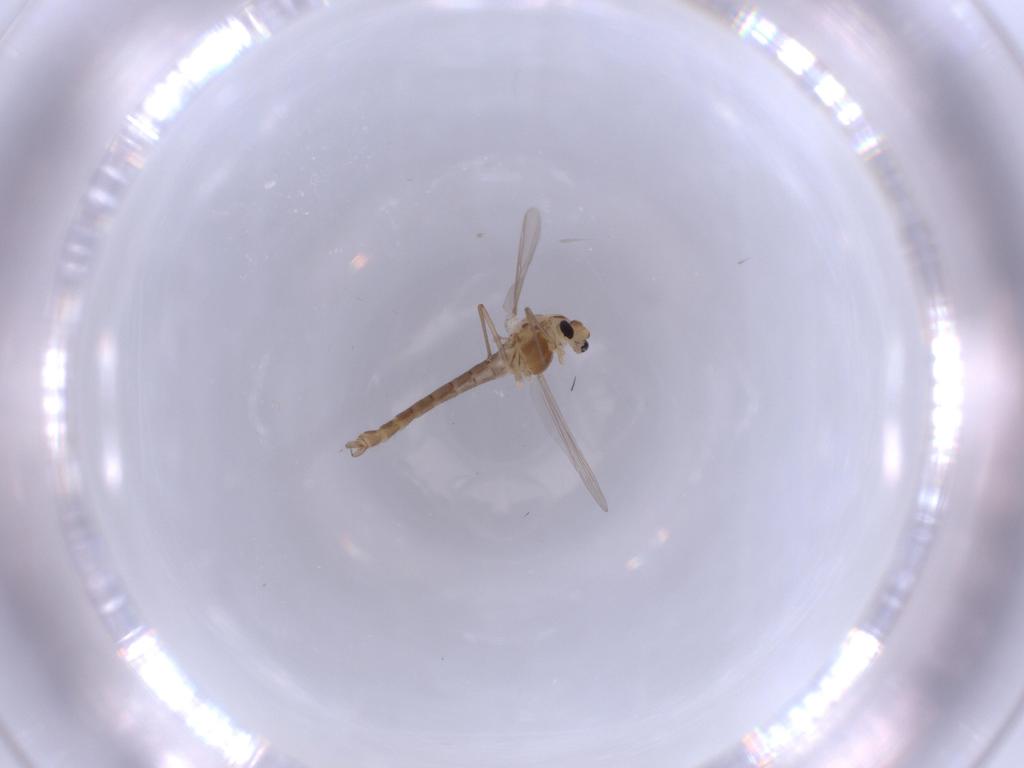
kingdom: Animalia
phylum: Arthropoda
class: Insecta
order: Diptera
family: Chironomidae
